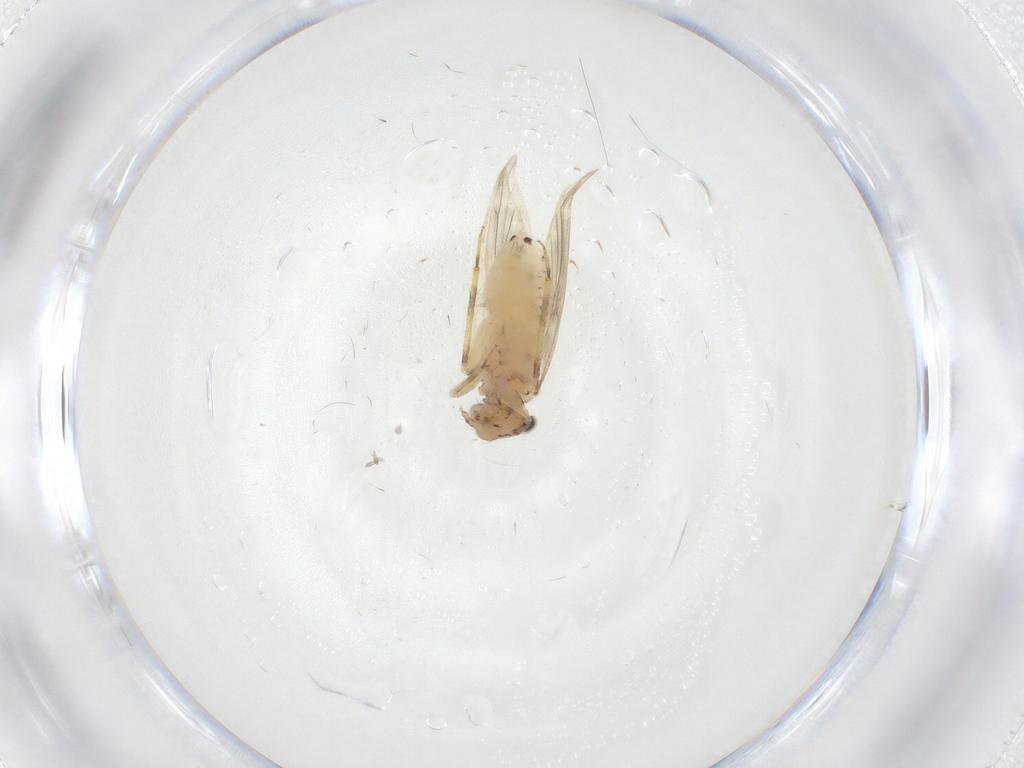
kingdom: Animalia
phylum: Arthropoda
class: Insecta
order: Psocodea
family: Lepidopsocidae
